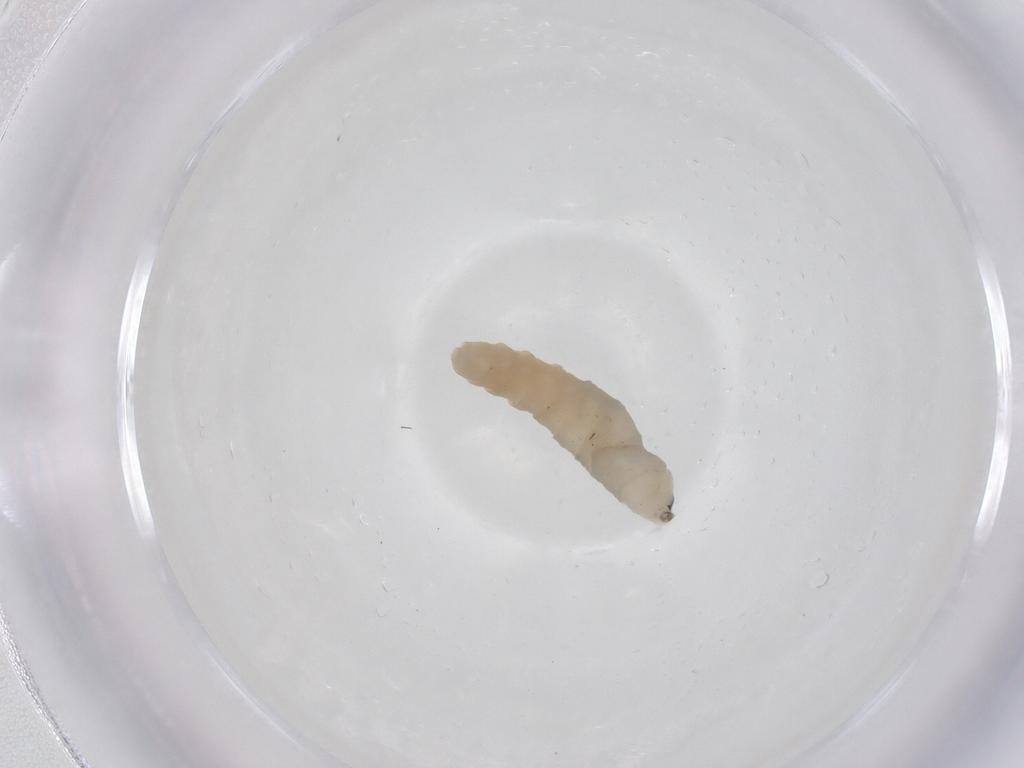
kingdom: Animalia
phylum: Arthropoda
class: Insecta
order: Diptera
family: Cecidomyiidae
